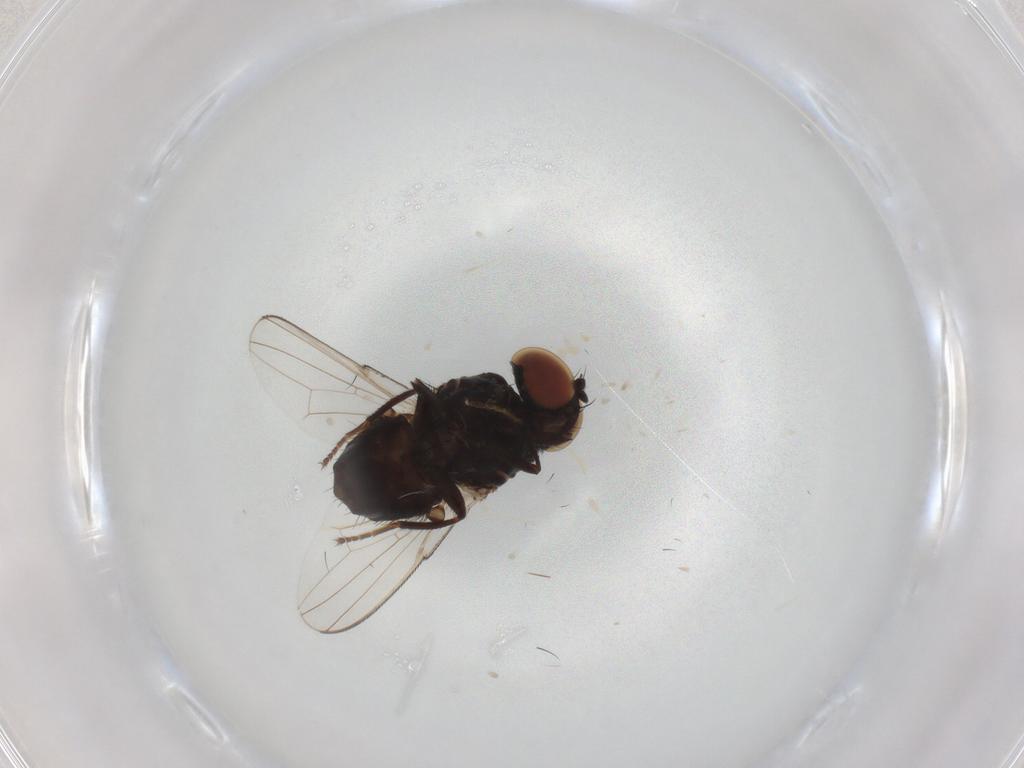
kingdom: Animalia
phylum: Arthropoda
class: Insecta
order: Diptera
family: Milichiidae
